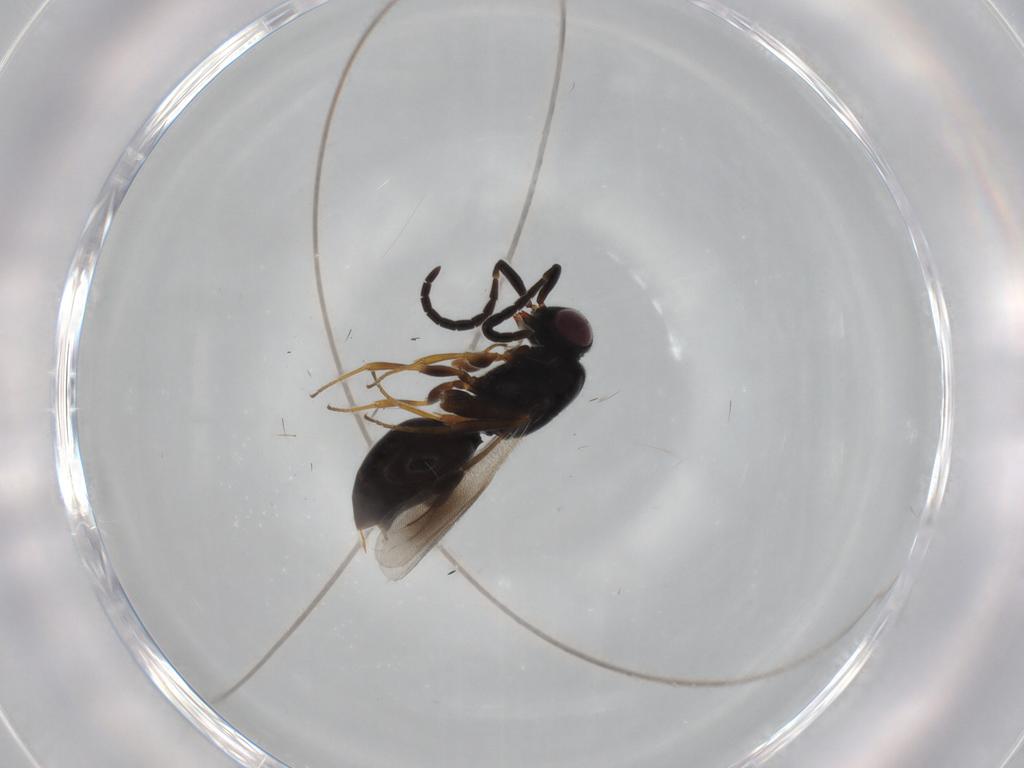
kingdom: Animalia
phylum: Arthropoda
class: Insecta
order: Hymenoptera
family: Megaspilidae
